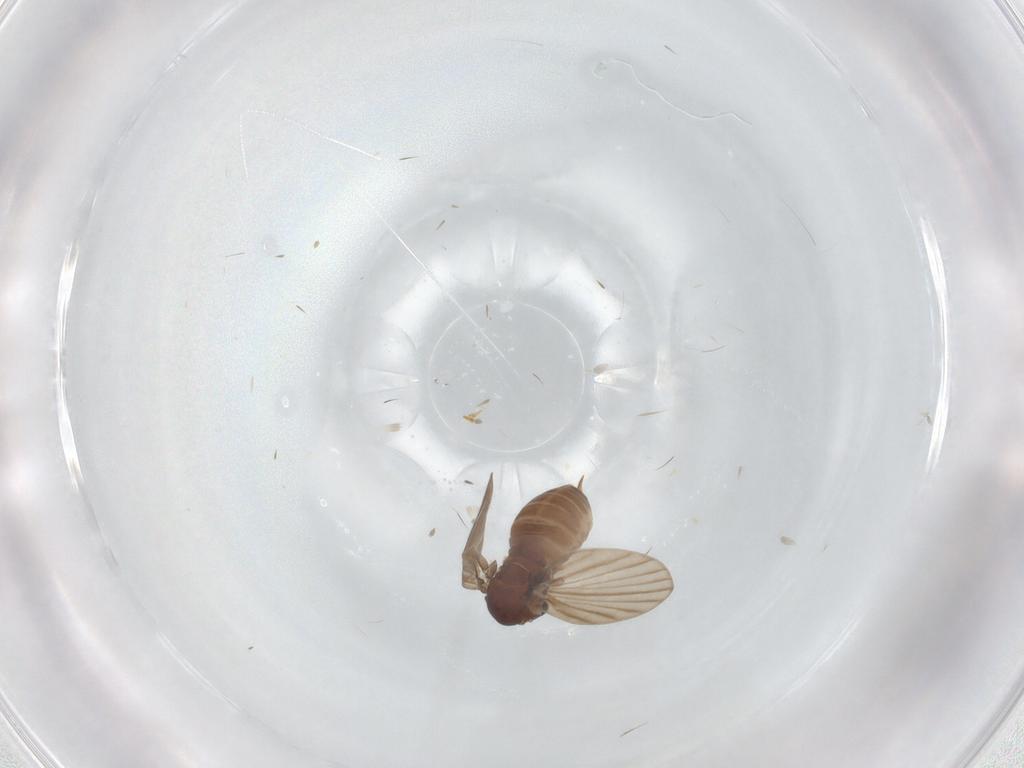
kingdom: Animalia
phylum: Arthropoda
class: Insecta
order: Diptera
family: Psychodidae
